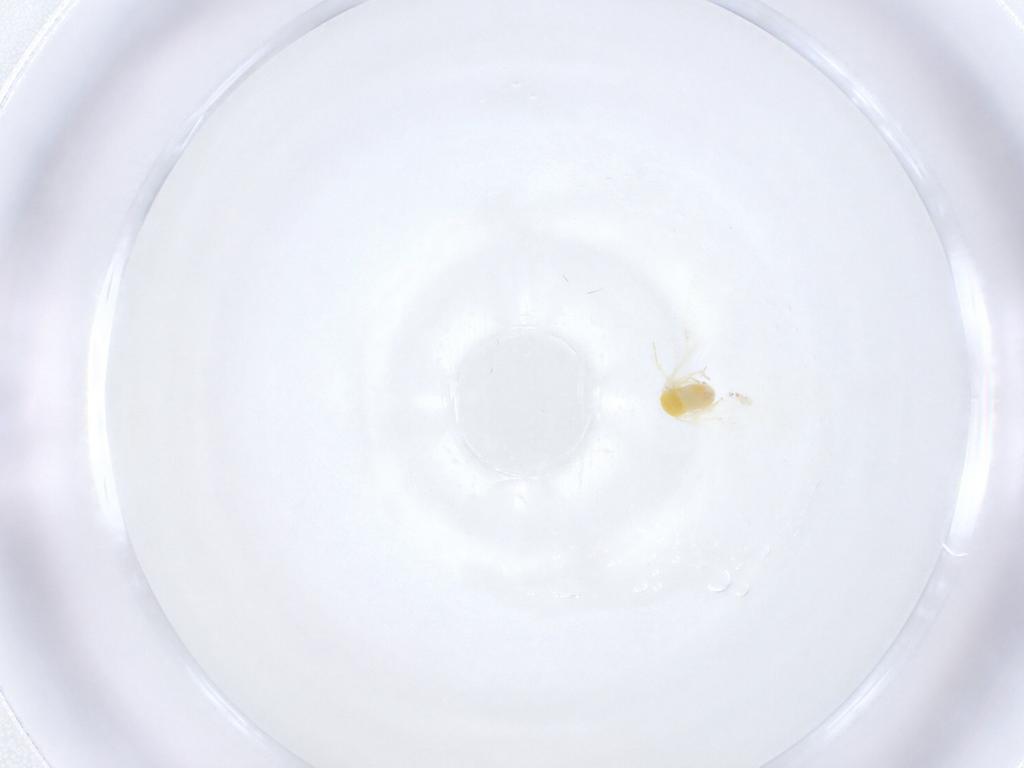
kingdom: Animalia
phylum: Arthropoda
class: Insecta
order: Hemiptera
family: Aleyrodidae
